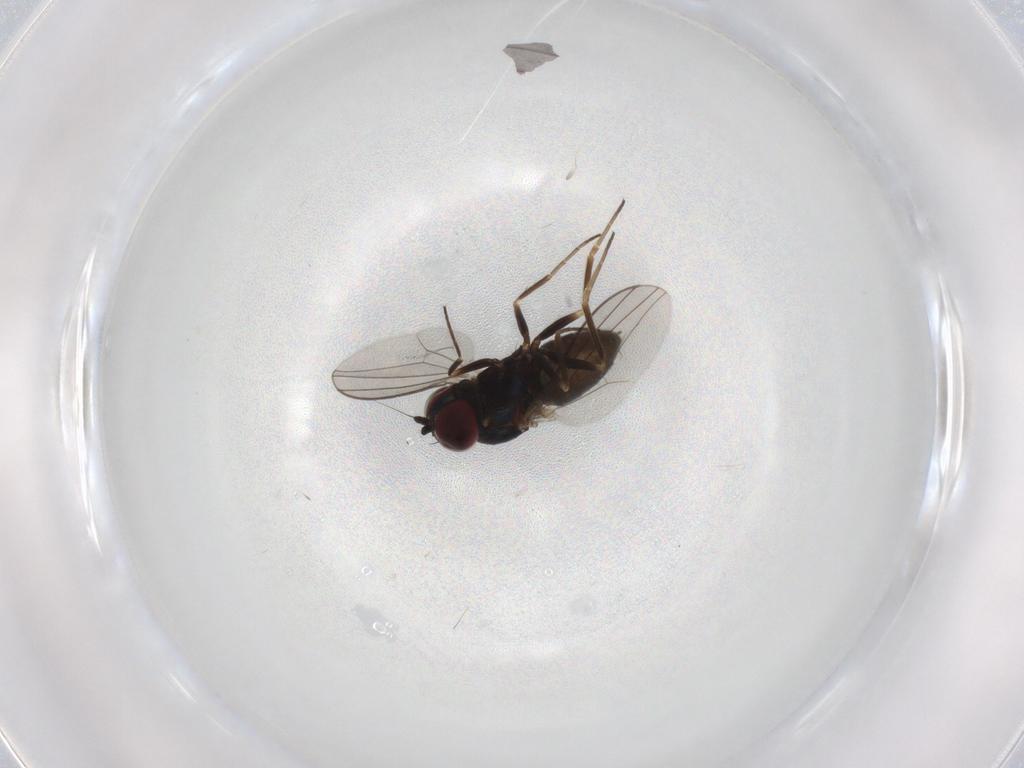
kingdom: Animalia
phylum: Arthropoda
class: Insecta
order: Diptera
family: Dolichopodidae
